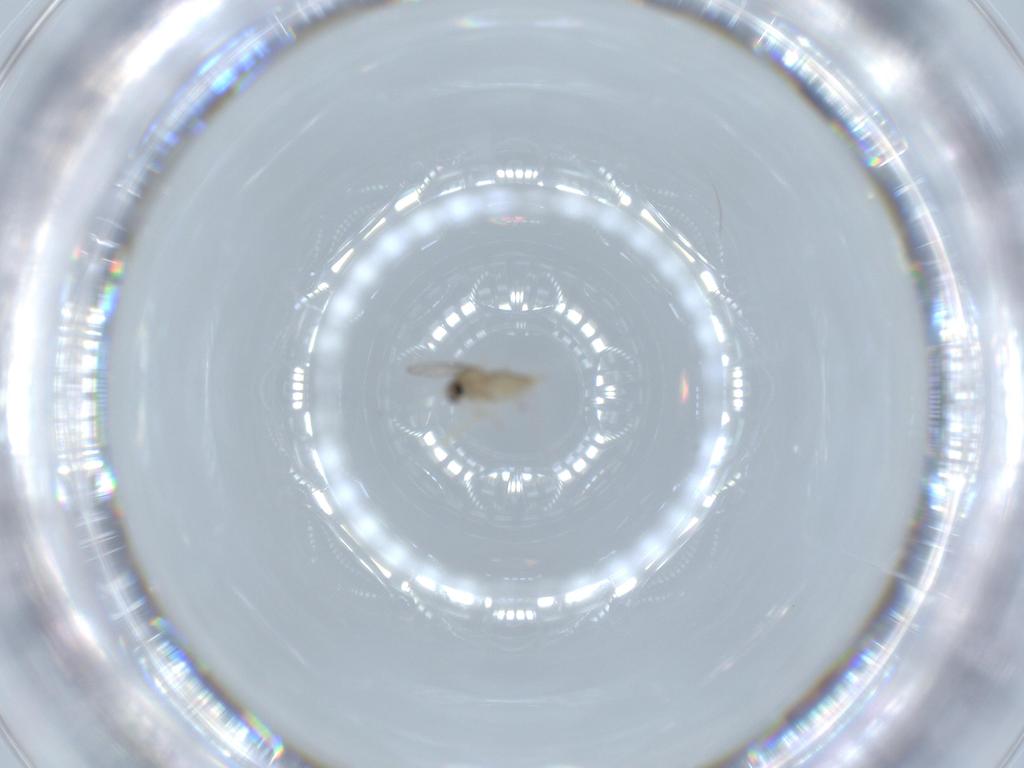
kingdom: Animalia
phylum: Arthropoda
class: Insecta
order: Diptera
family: Cecidomyiidae
